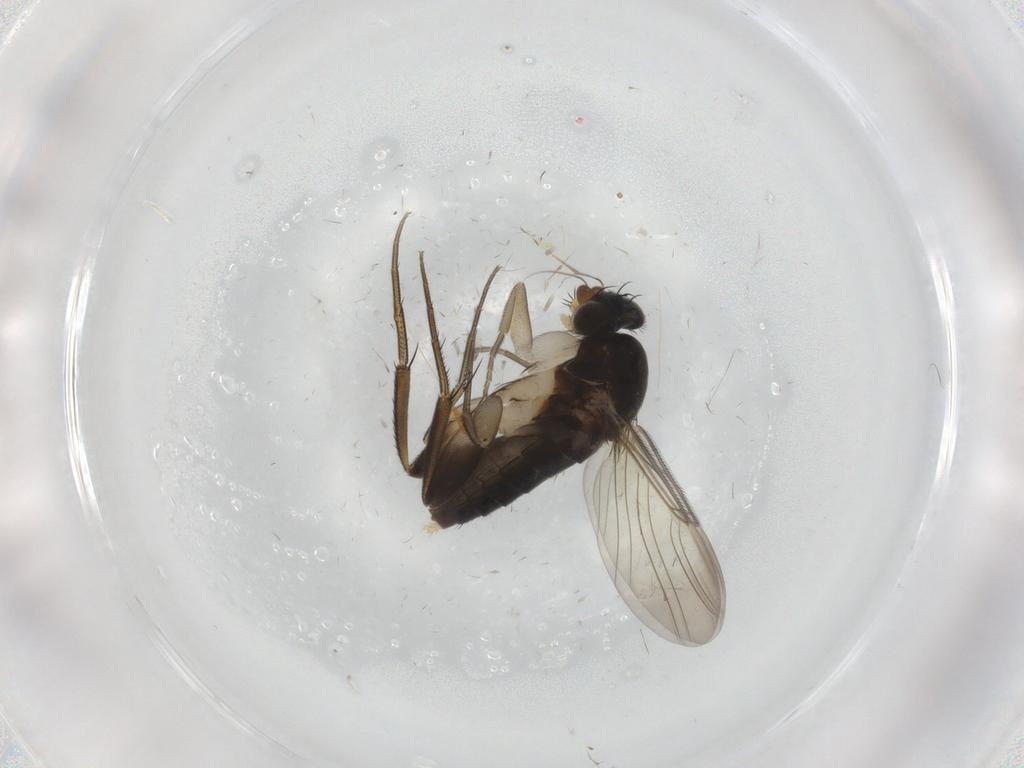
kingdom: Animalia
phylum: Arthropoda
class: Insecta
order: Diptera
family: Phoridae
